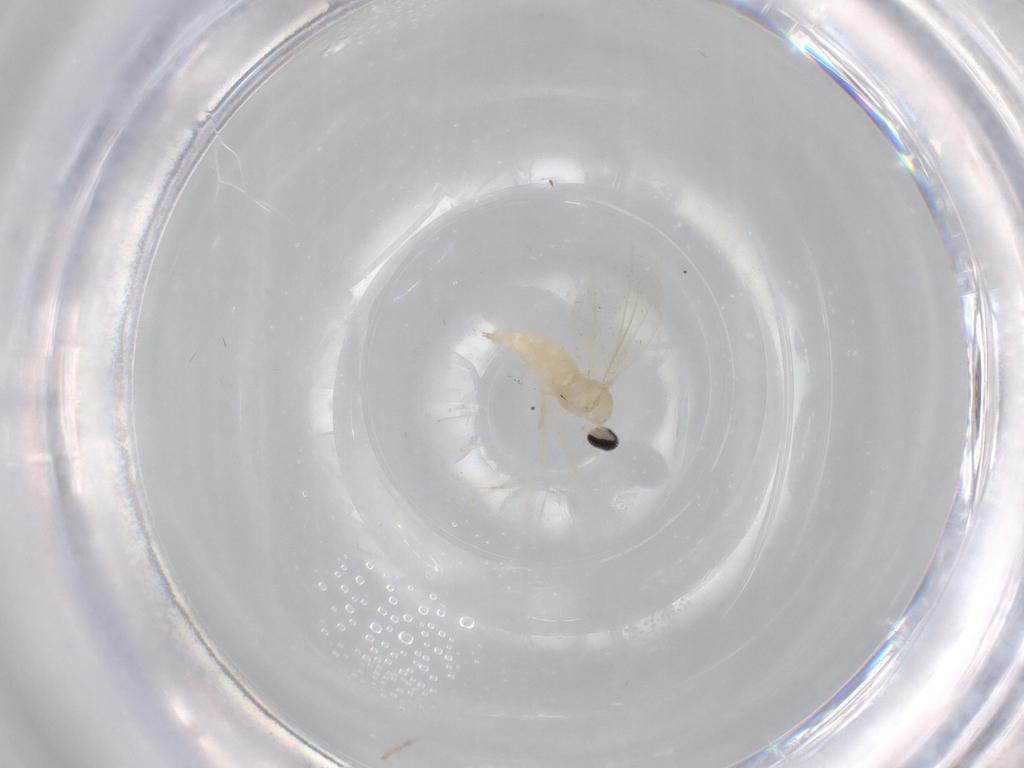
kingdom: Animalia
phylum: Arthropoda
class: Insecta
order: Diptera
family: Cecidomyiidae
